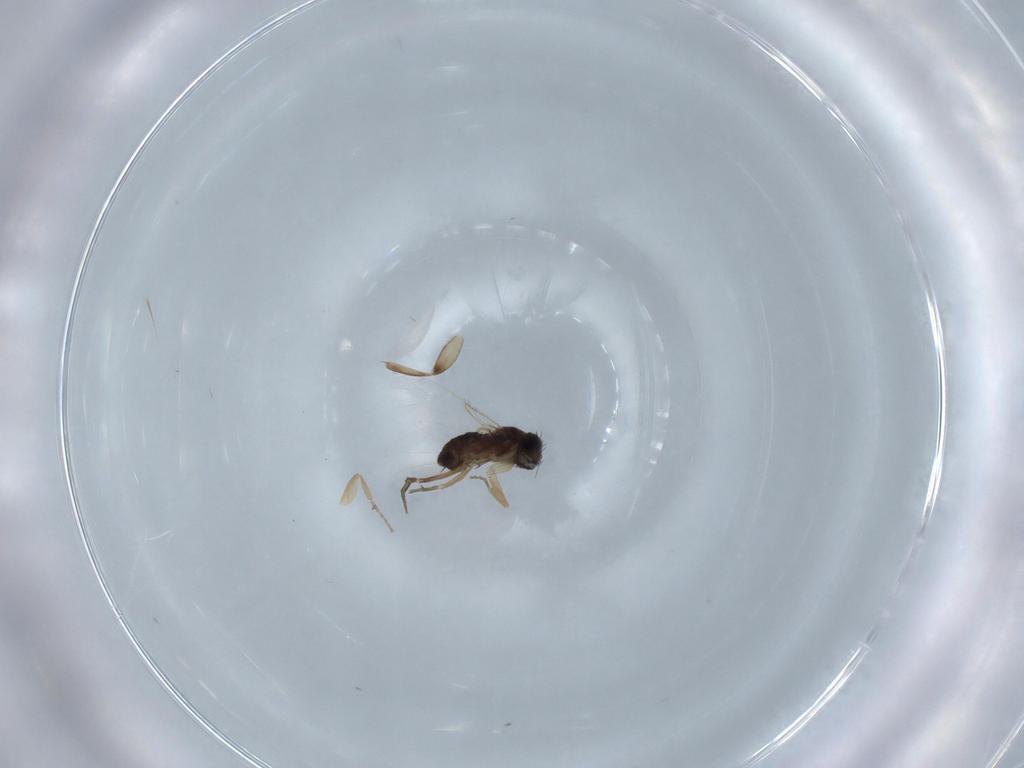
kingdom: Animalia
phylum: Arthropoda
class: Insecta
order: Diptera
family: Phoridae
